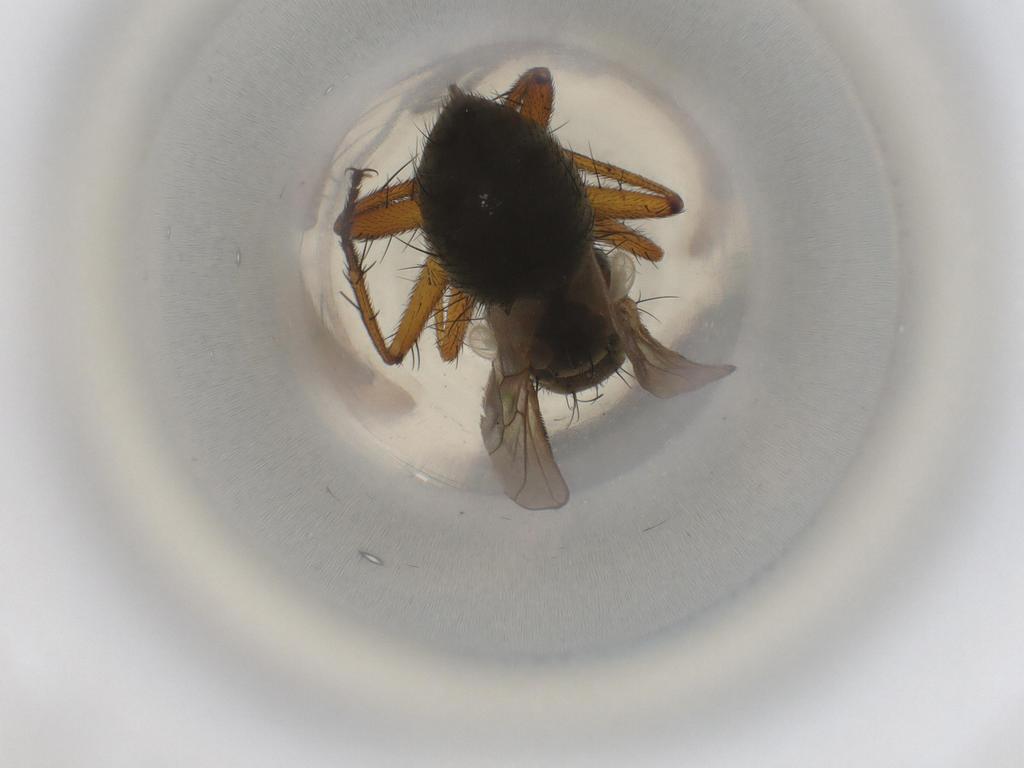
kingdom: Animalia
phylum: Arthropoda
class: Insecta
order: Diptera
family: Muscidae
